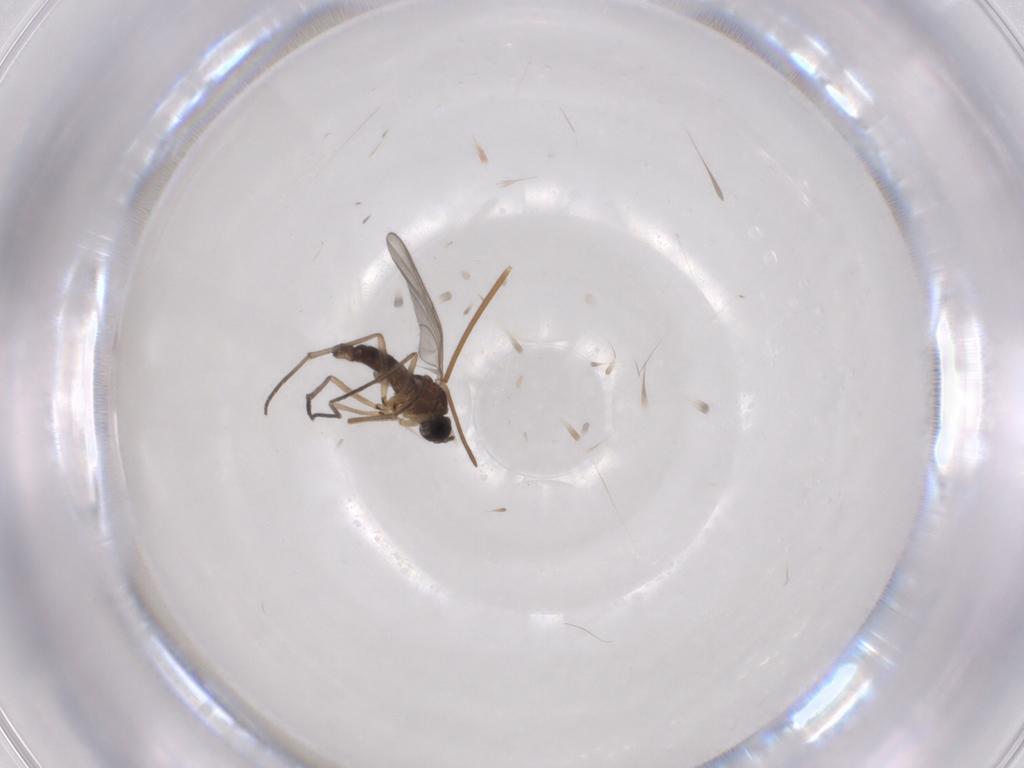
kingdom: Animalia
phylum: Arthropoda
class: Insecta
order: Diptera
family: Sciaridae
